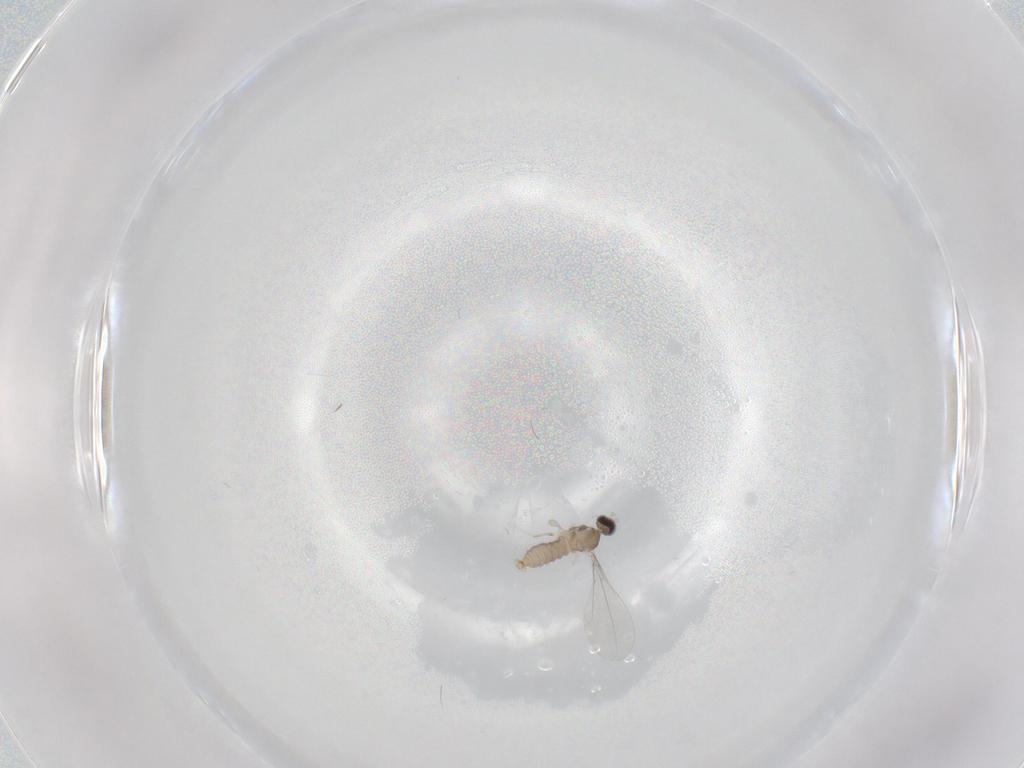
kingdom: Animalia
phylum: Arthropoda
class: Insecta
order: Diptera
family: Cecidomyiidae
